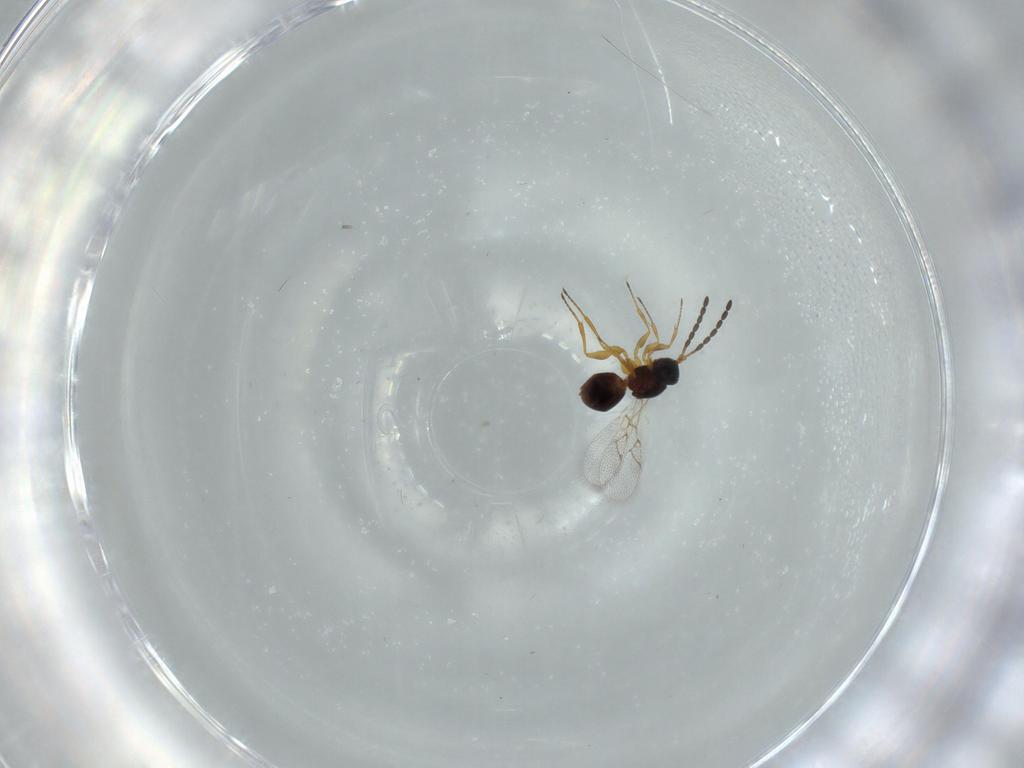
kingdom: Animalia
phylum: Arthropoda
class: Insecta
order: Hymenoptera
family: Figitidae
